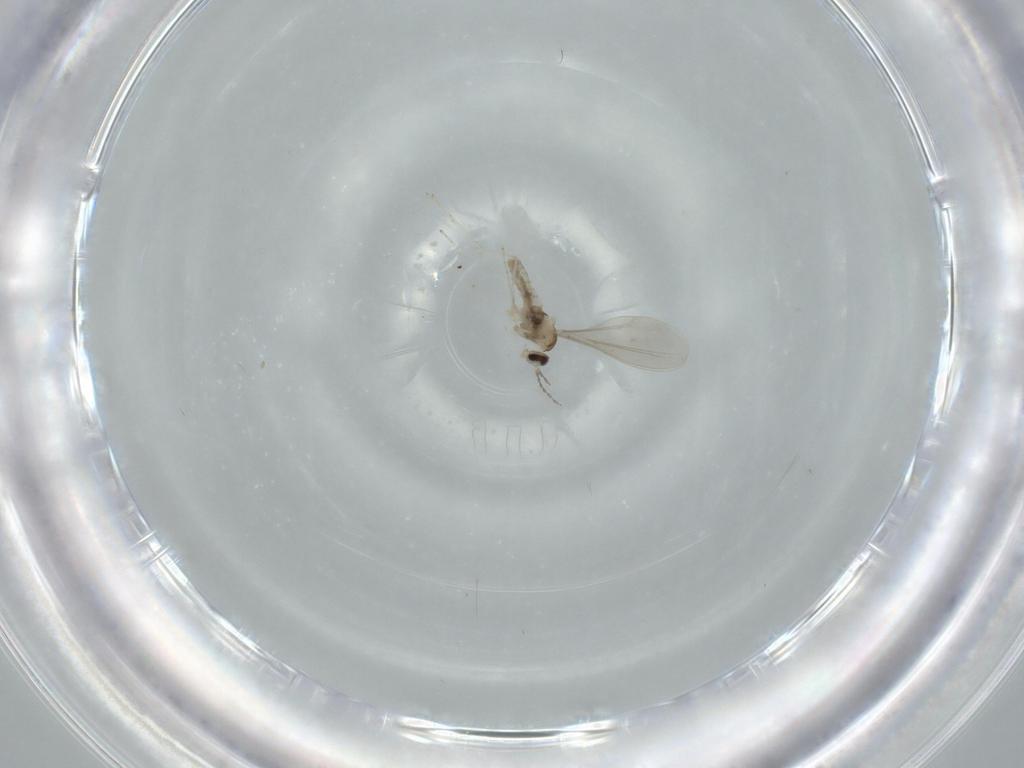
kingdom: Animalia
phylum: Arthropoda
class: Insecta
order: Diptera
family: Cecidomyiidae
